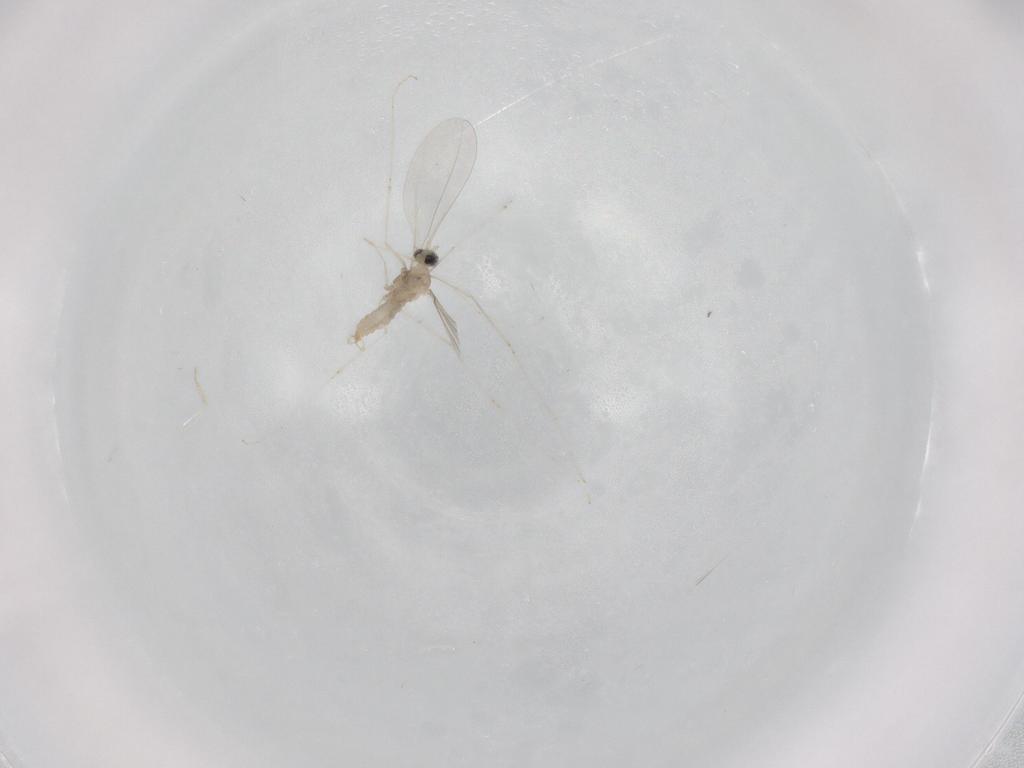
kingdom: Animalia
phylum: Arthropoda
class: Insecta
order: Diptera
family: Cecidomyiidae
